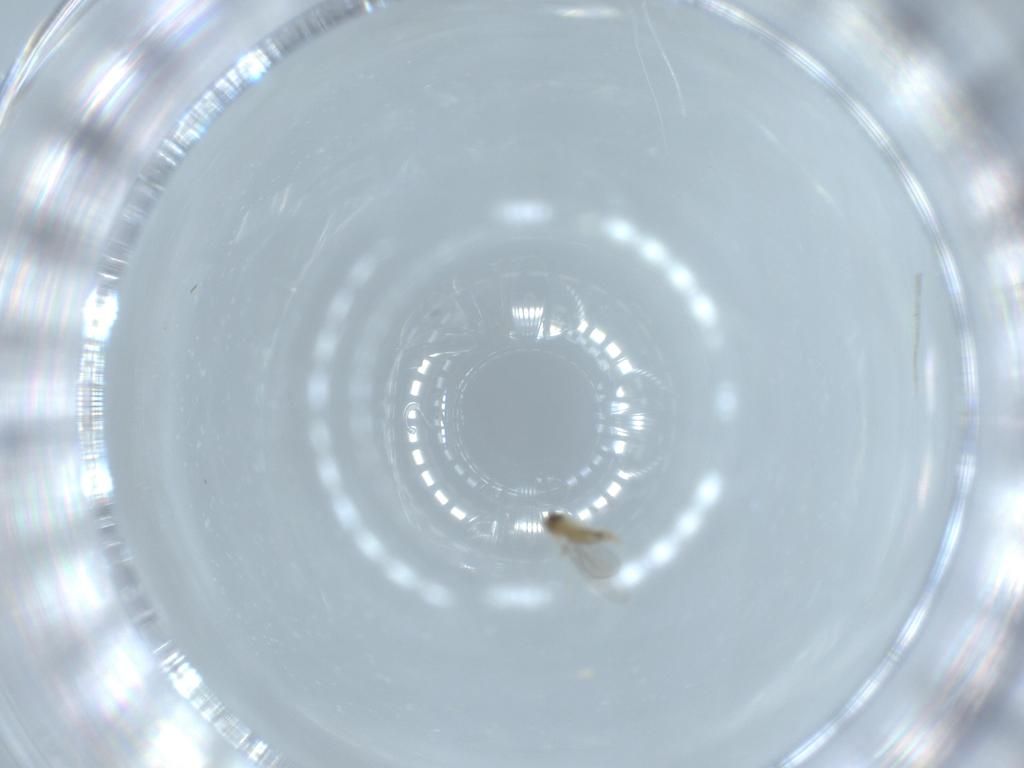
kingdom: Animalia
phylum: Arthropoda
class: Insecta
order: Diptera
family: Cecidomyiidae
